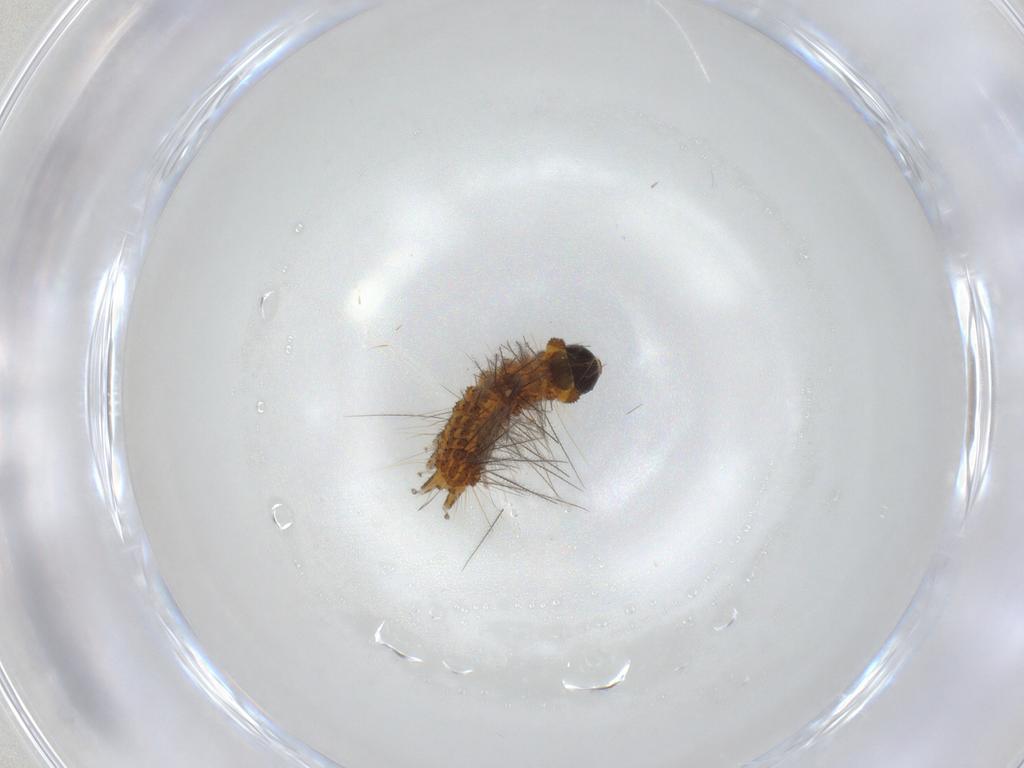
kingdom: Animalia
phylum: Arthropoda
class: Insecta
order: Lepidoptera
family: Erebidae
